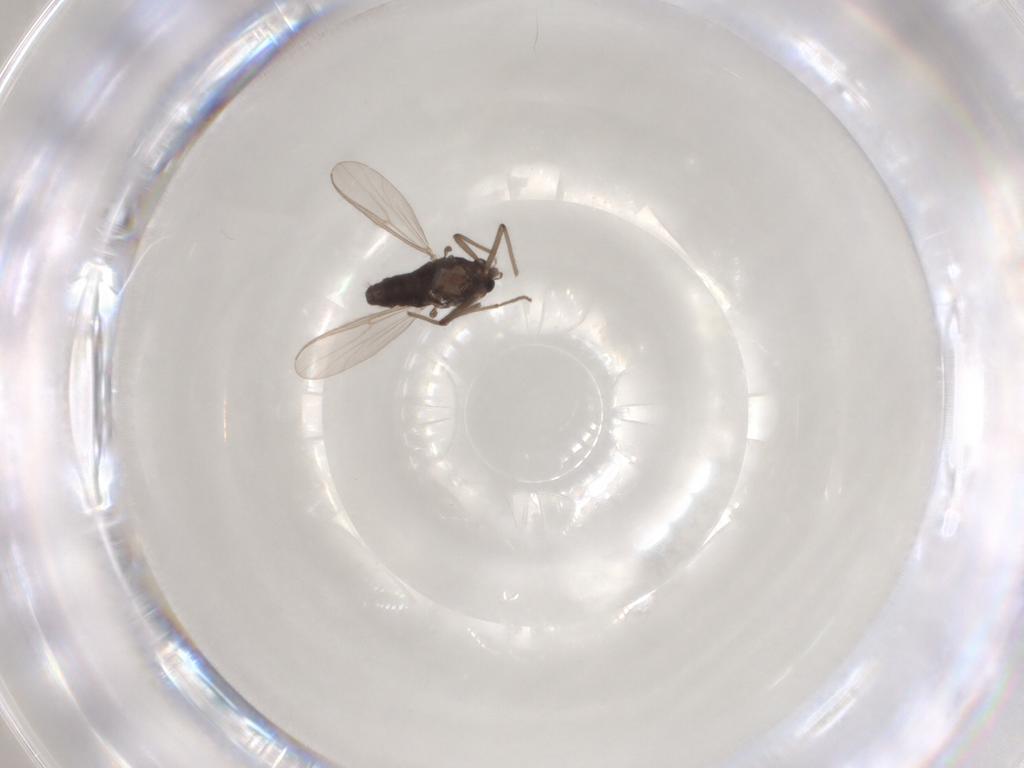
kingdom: Animalia
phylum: Arthropoda
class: Insecta
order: Diptera
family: Chironomidae
